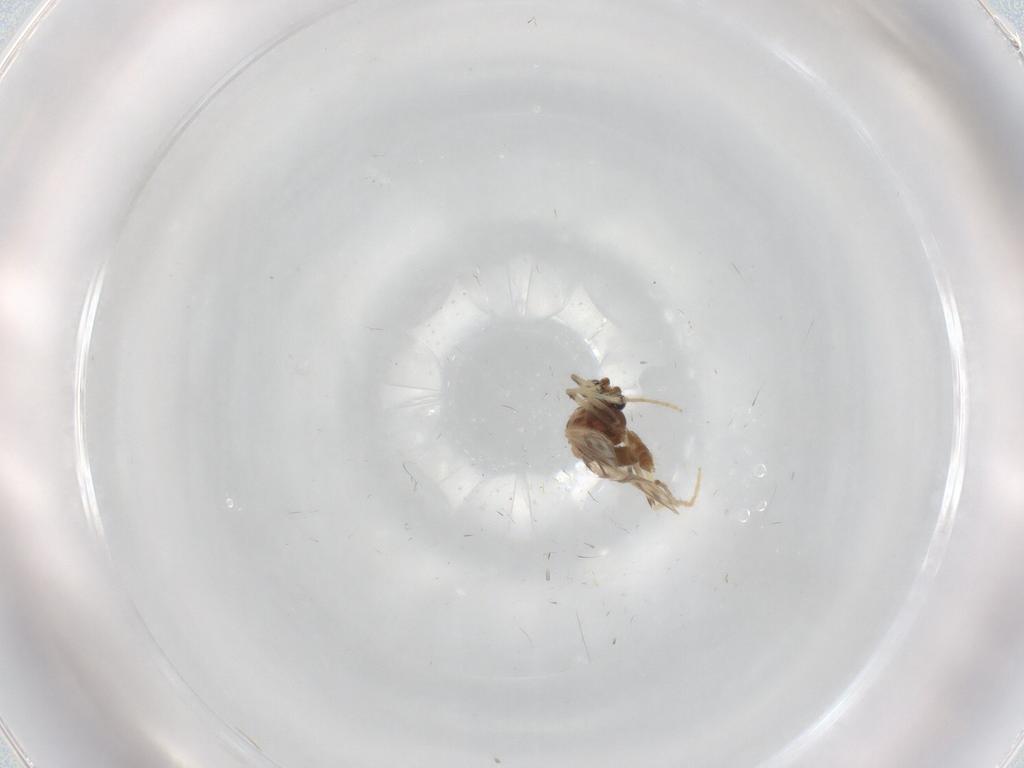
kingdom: Animalia
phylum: Arthropoda
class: Insecta
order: Diptera
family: Chironomidae
